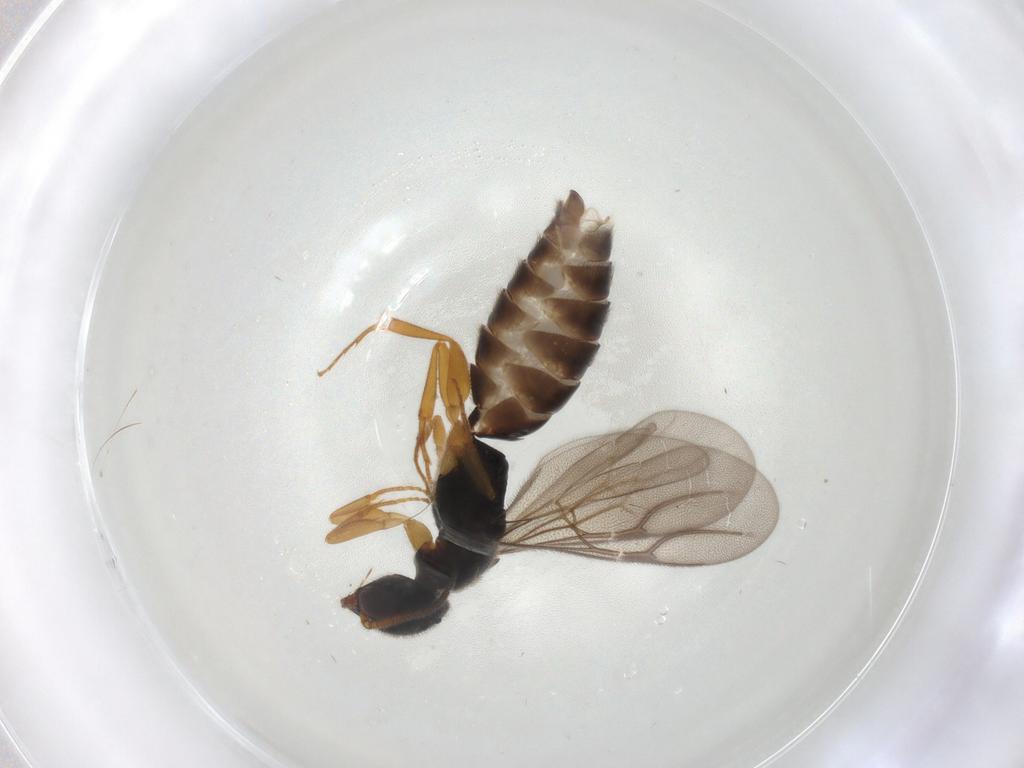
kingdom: Animalia
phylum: Arthropoda
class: Insecta
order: Hymenoptera
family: Bethylidae
